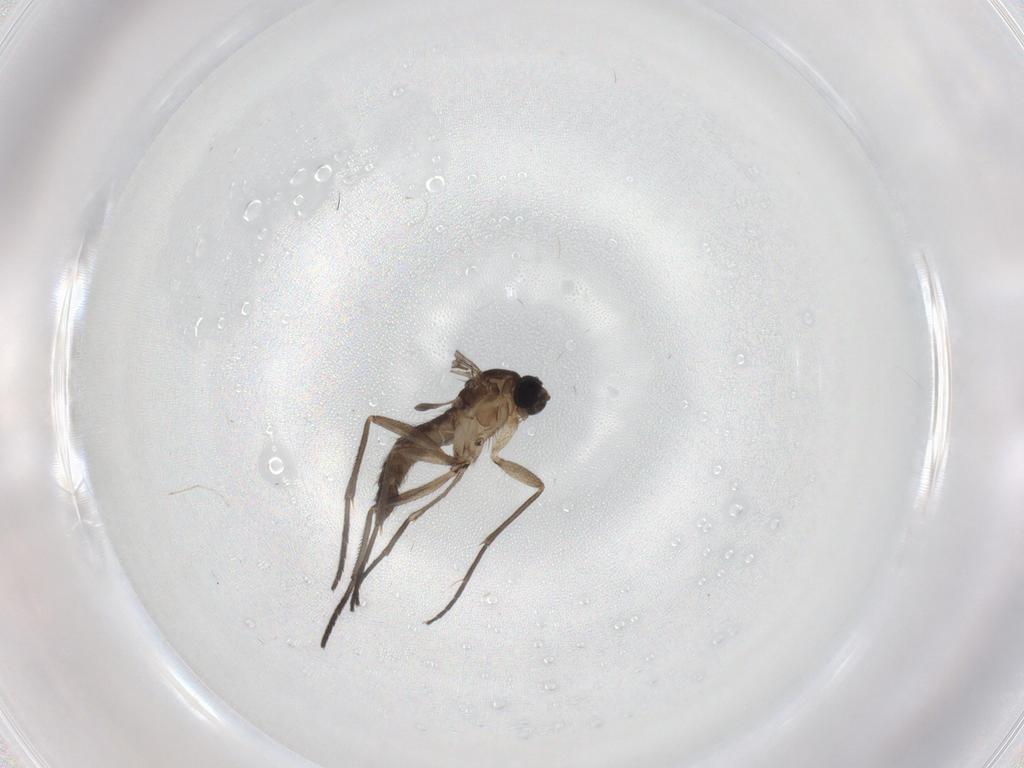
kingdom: Animalia
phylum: Arthropoda
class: Insecta
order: Diptera
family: Sciaridae
